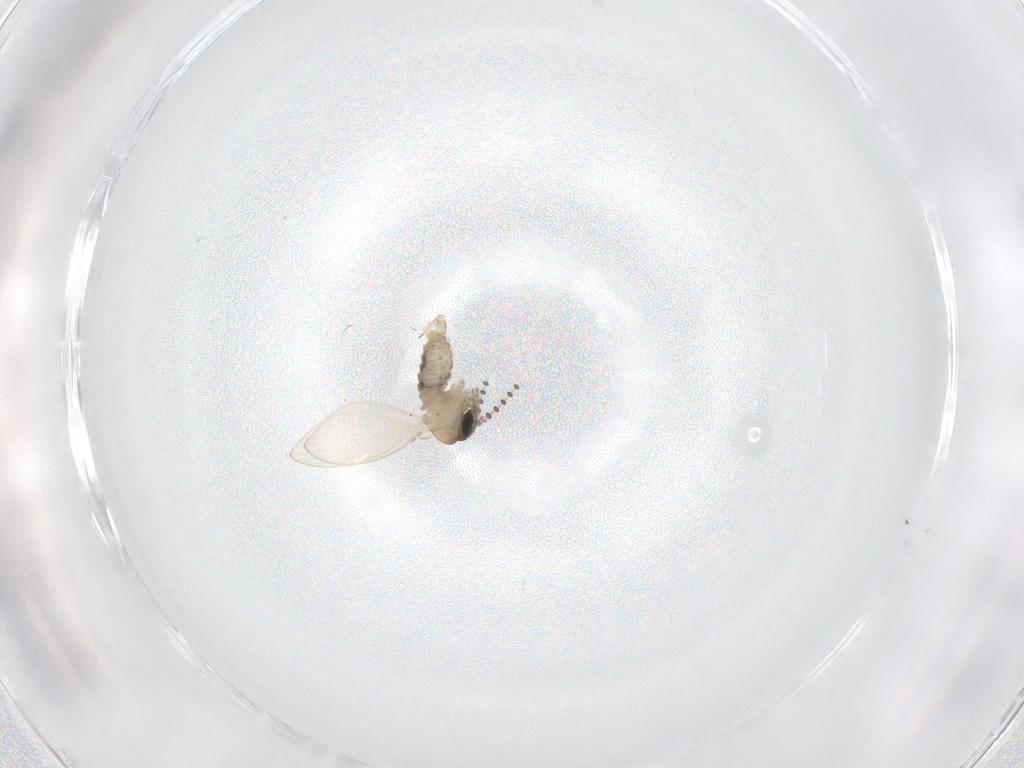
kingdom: Animalia
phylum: Arthropoda
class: Insecta
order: Diptera
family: Psychodidae
